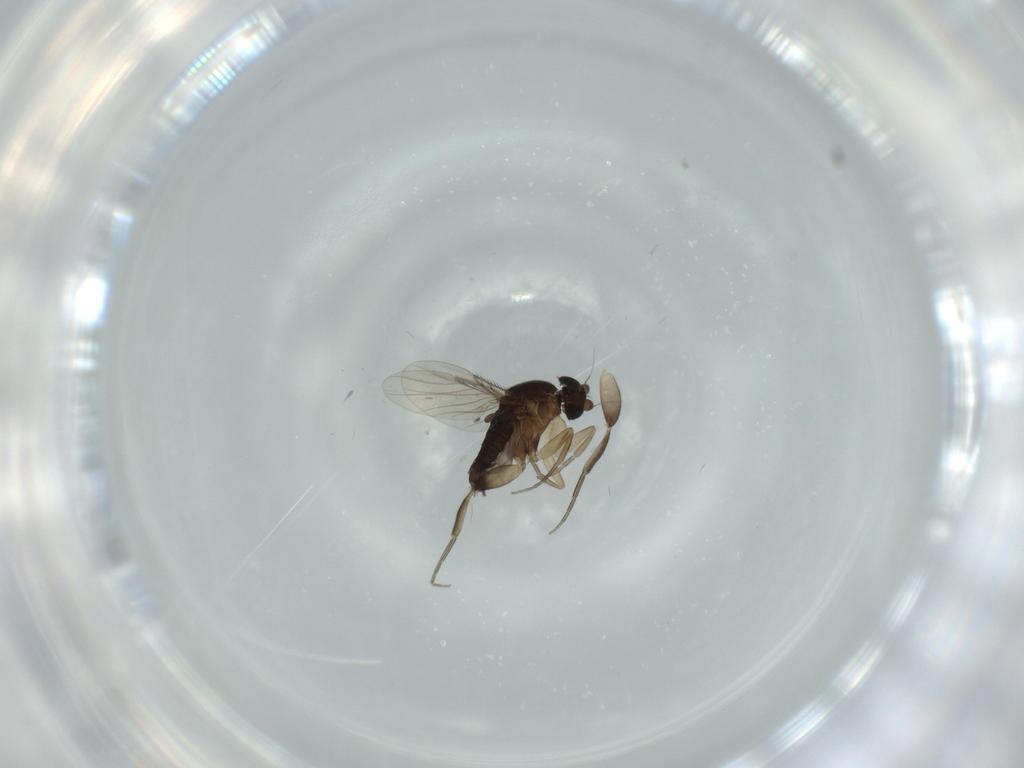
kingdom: Animalia
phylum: Arthropoda
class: Insecta
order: Diptera
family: Phoridae
